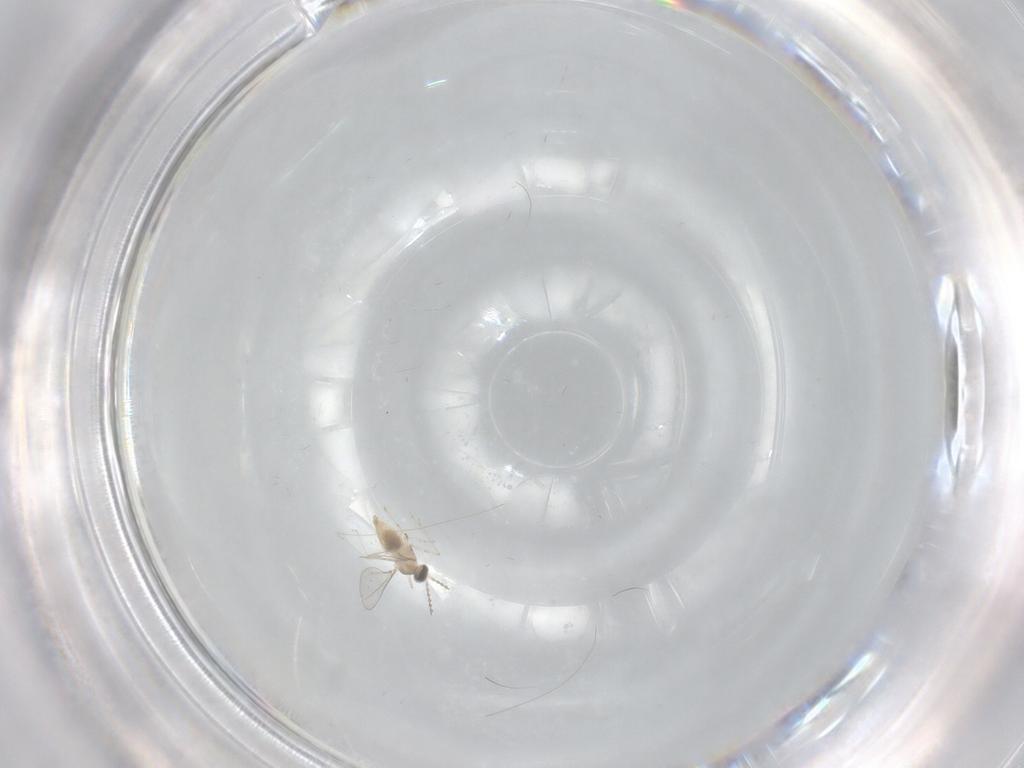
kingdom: Animalia
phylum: Arthropoda
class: Insecta
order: Diptera
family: Cecidomyiidae
